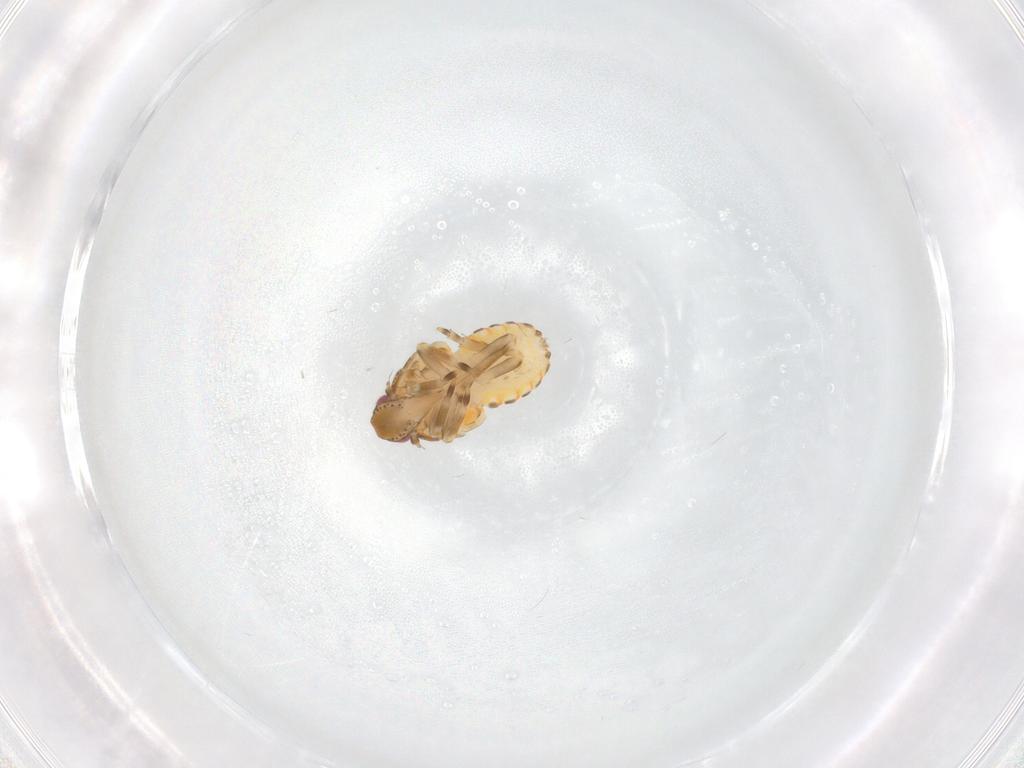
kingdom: Animalia
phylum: Arthropoda
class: Insecta
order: Hemiptera
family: Flatidae
